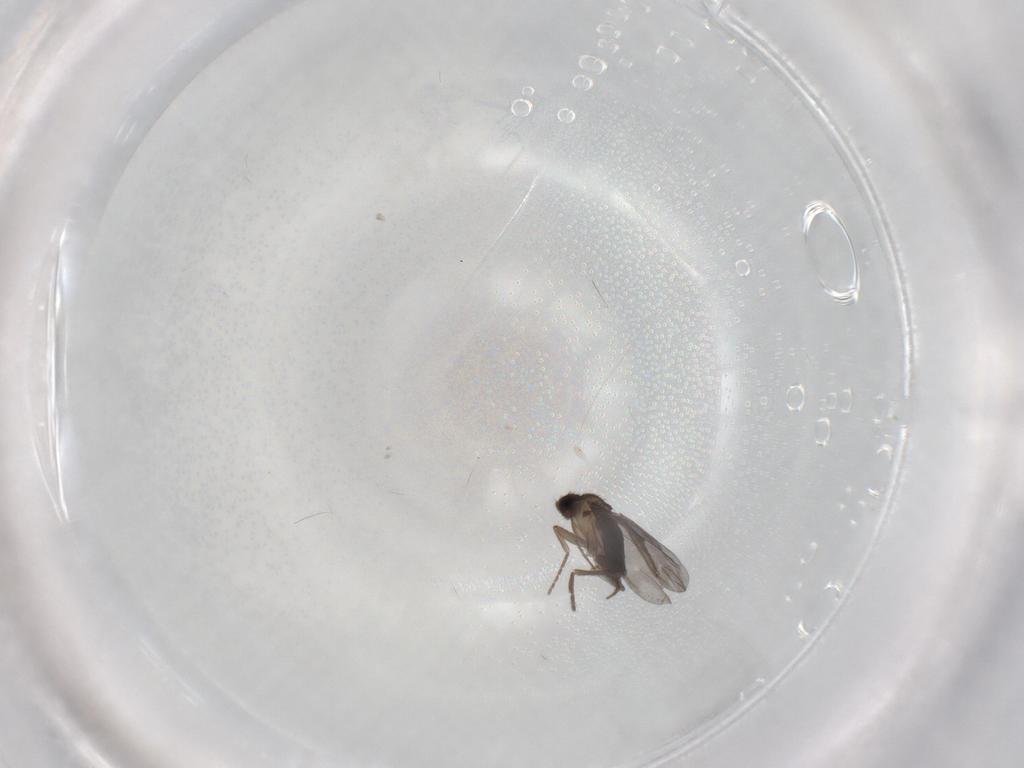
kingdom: Animalia
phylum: Arthropoda
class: Insecta
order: Diptera
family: Phoridae
